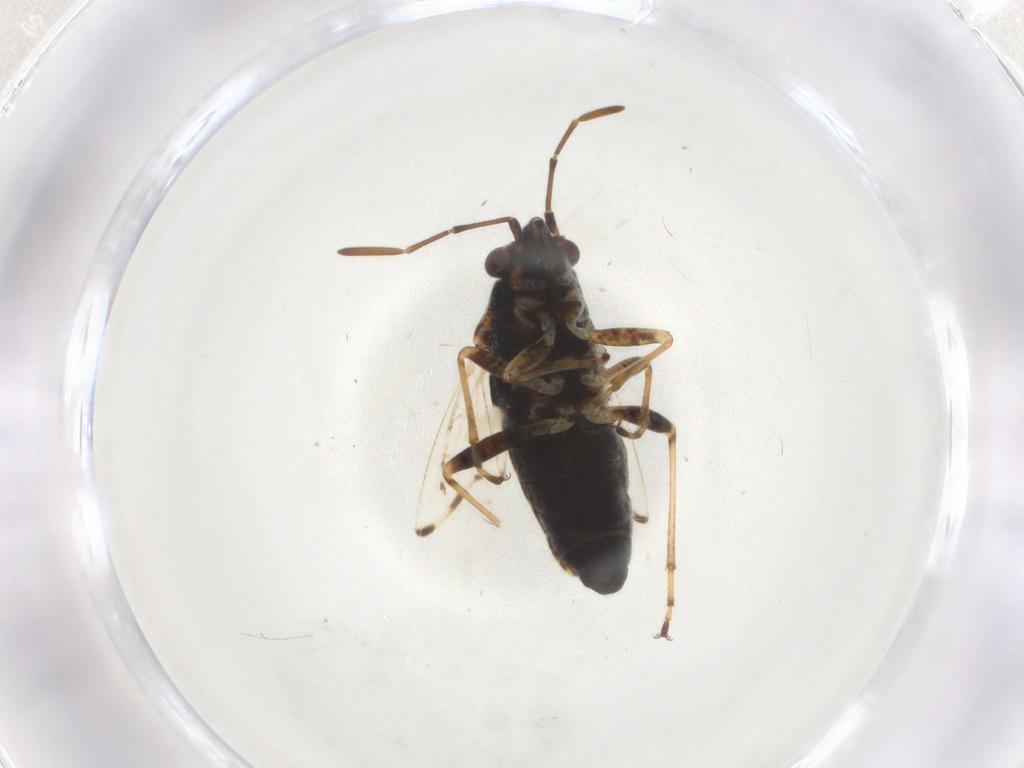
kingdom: Animalia
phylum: Arthropoda
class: Insecta
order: Hemiptera
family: Lygaeidae
